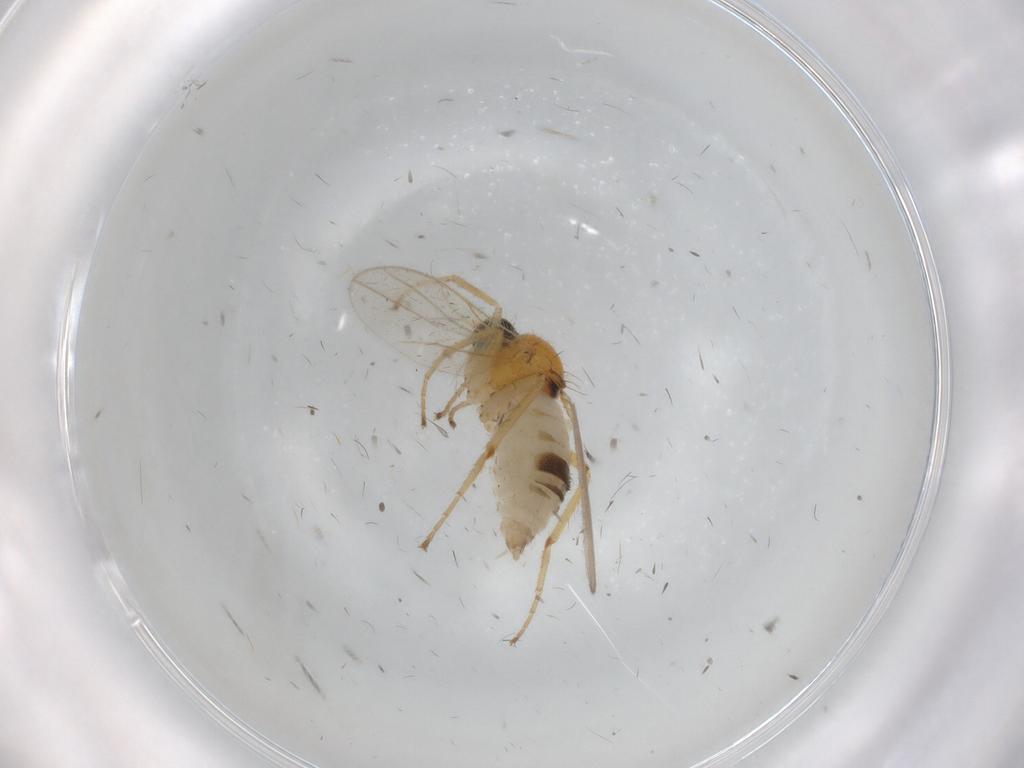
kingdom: Animalia
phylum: Arthropoda
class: Insecta
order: Diptera
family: Hybotidae
